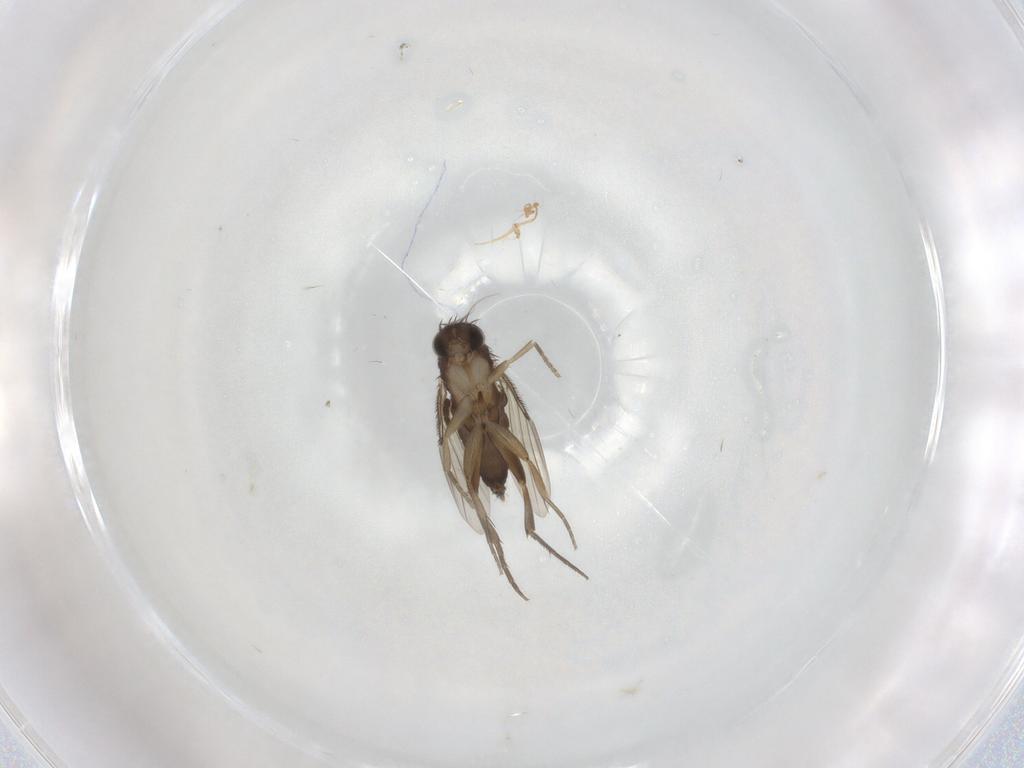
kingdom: Animalia
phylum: Arthropoda
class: Insecta
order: Diptera
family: Phoridae
